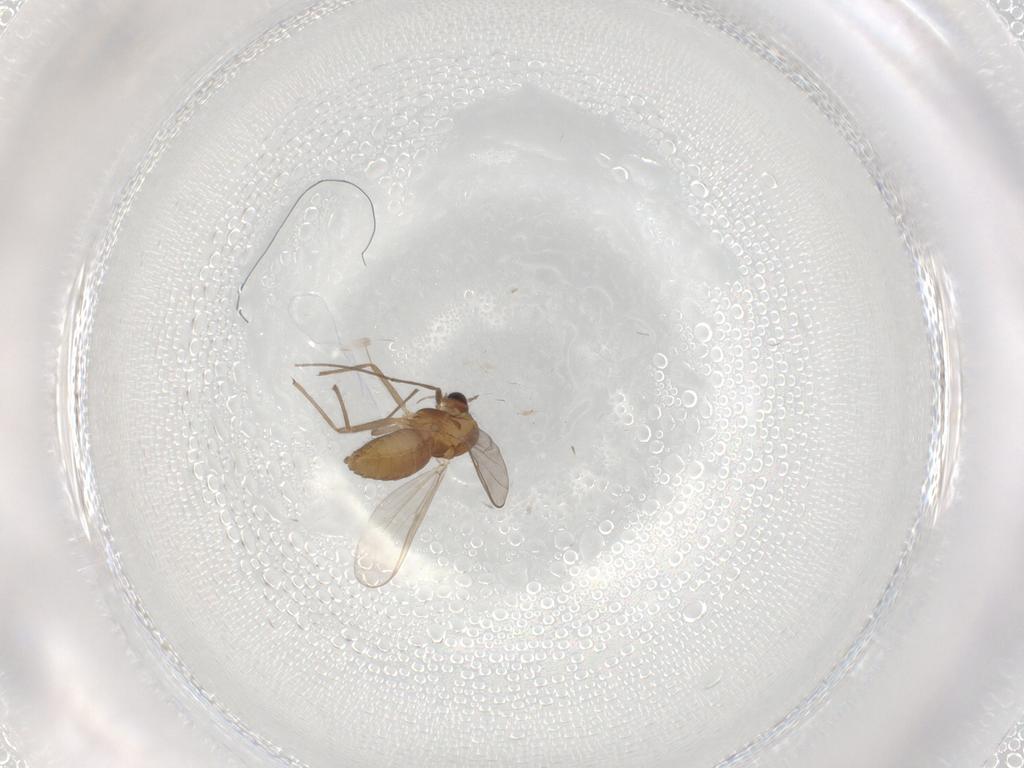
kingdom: Animalia
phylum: Arthropoda
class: Insecta
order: Diptera
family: Chironomidae
